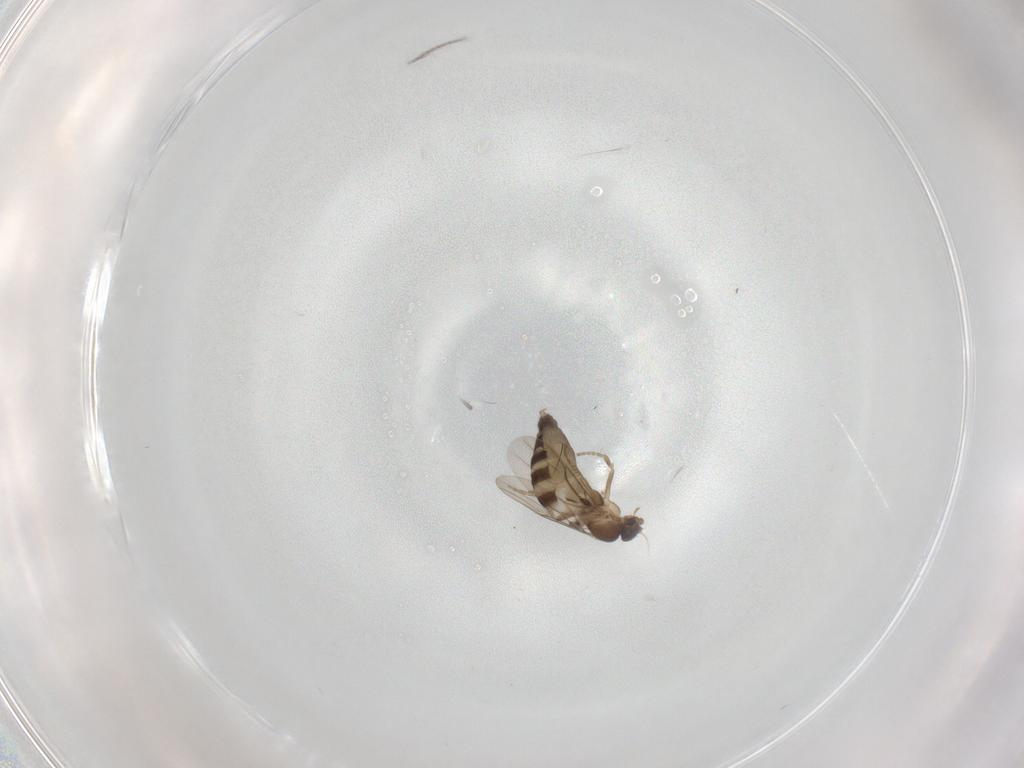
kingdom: Animalia
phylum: Arthropoda
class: Insecta
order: Diptera
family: Phoridae
